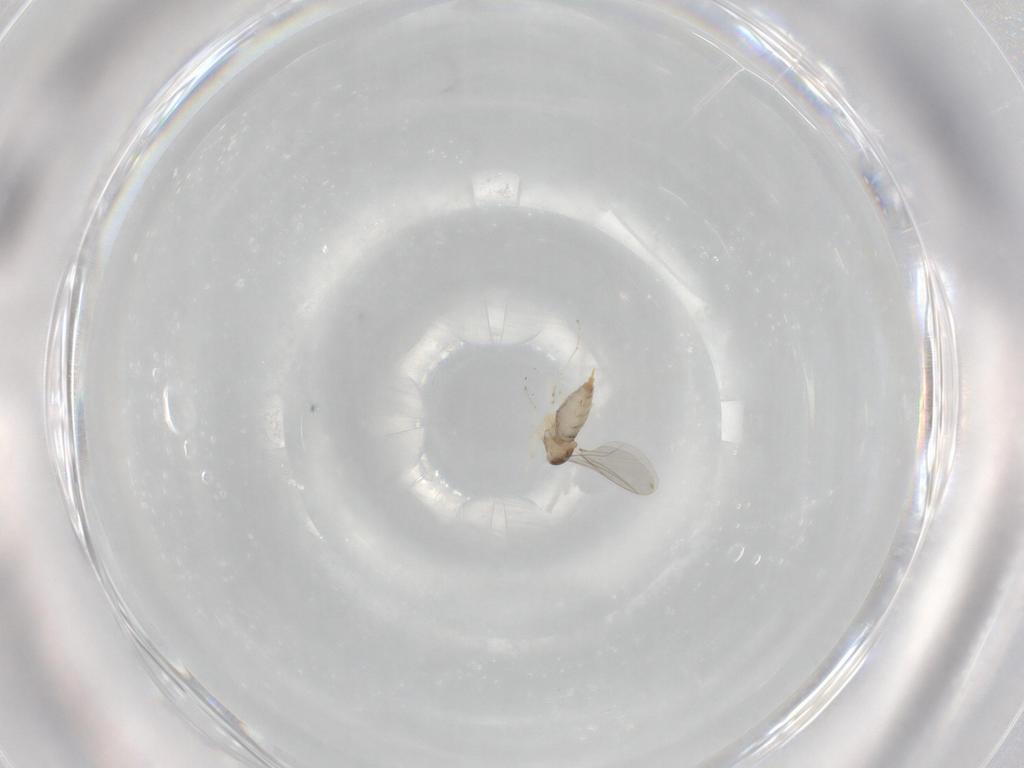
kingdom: Animalia
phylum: Arthropoda
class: Insecta
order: Diptera
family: Cecidomyiidae
